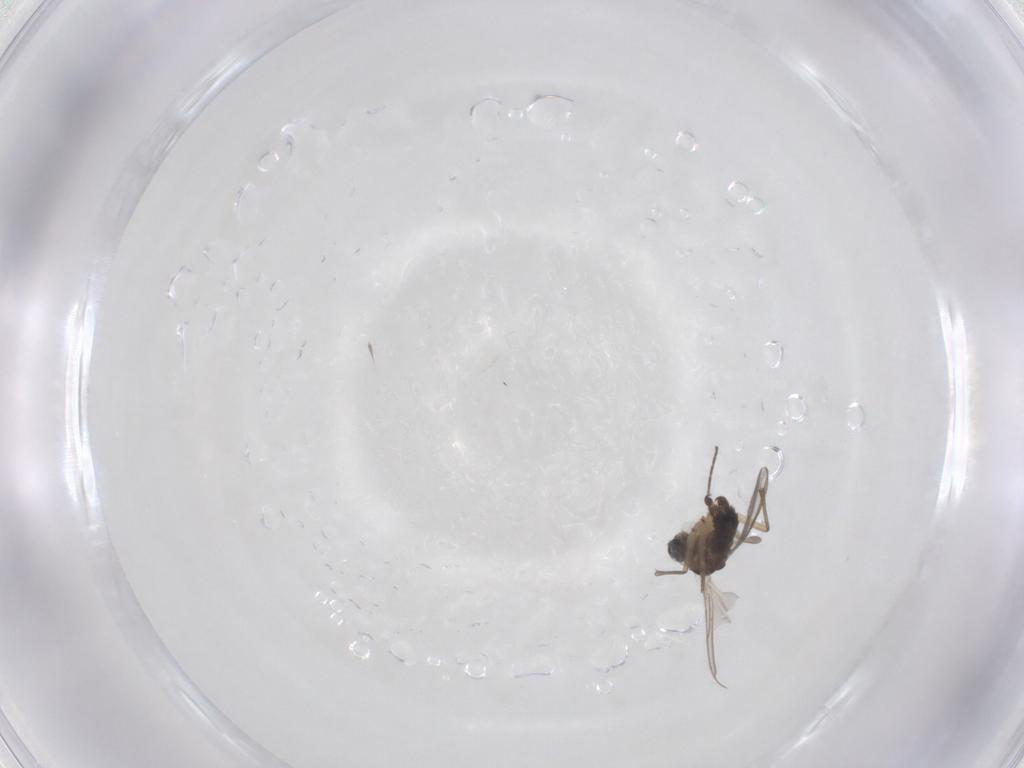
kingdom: Animalia
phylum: Arthropoda
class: Insecta
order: Diptera
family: Sciaridae
